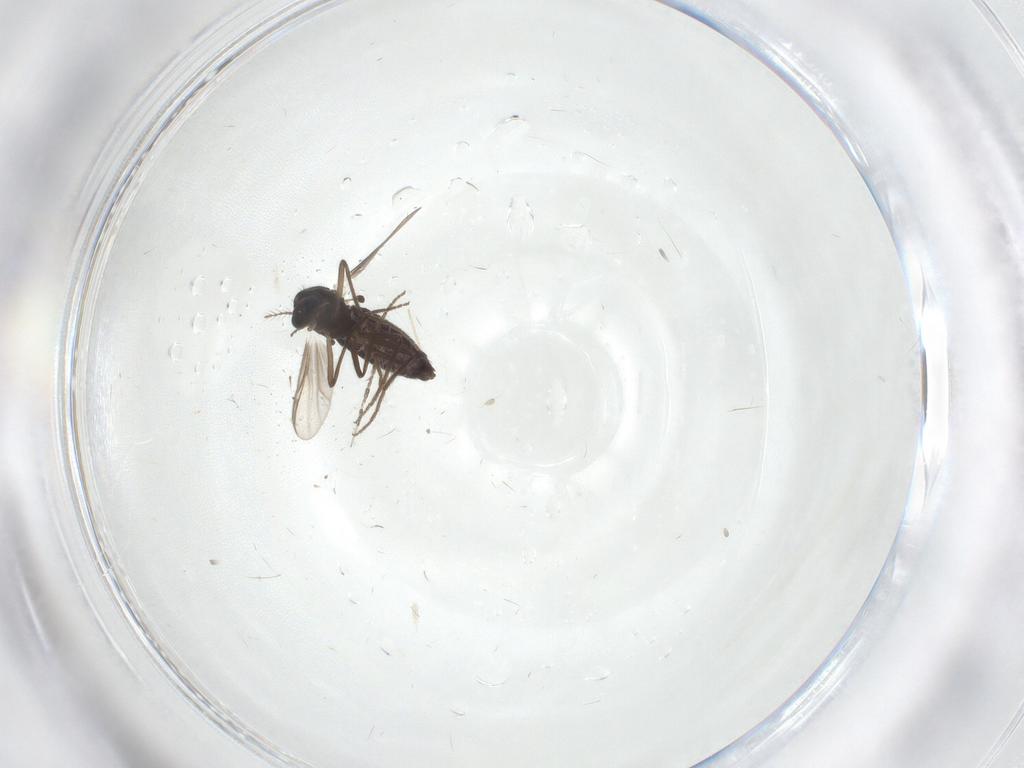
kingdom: Animalia
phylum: Arthropoda
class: Insecta
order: Diptera
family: Chironomidae
